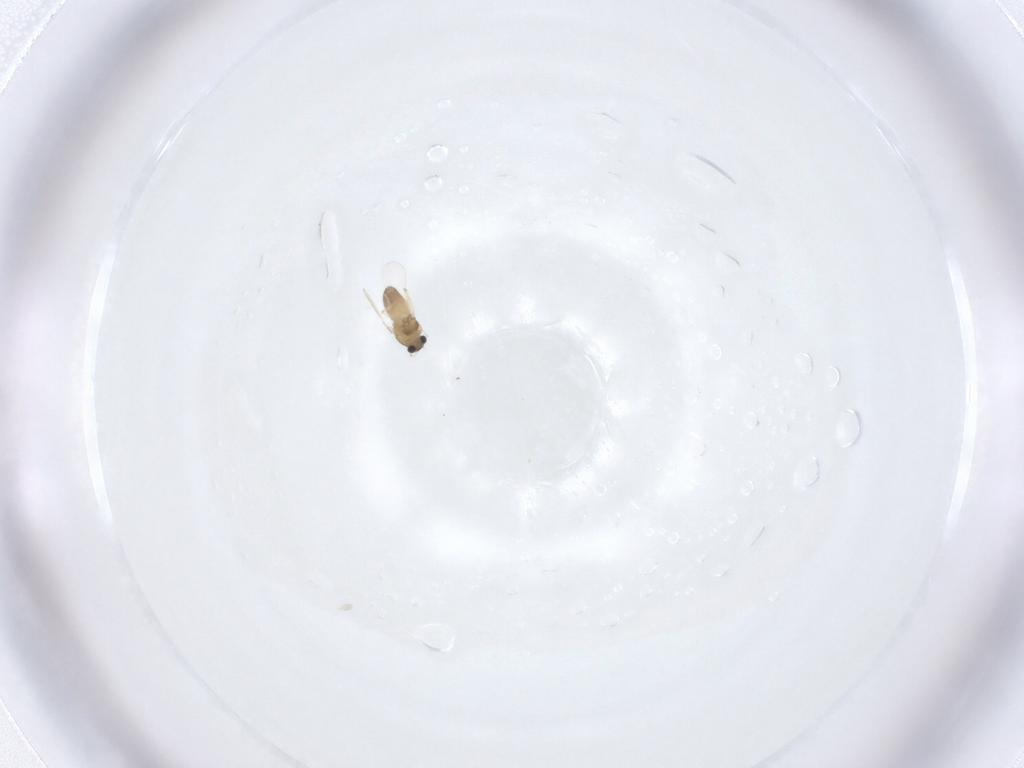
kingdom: Animalia
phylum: Arthropoda
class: Insecta
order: Diptera
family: Cecidomyiidae
